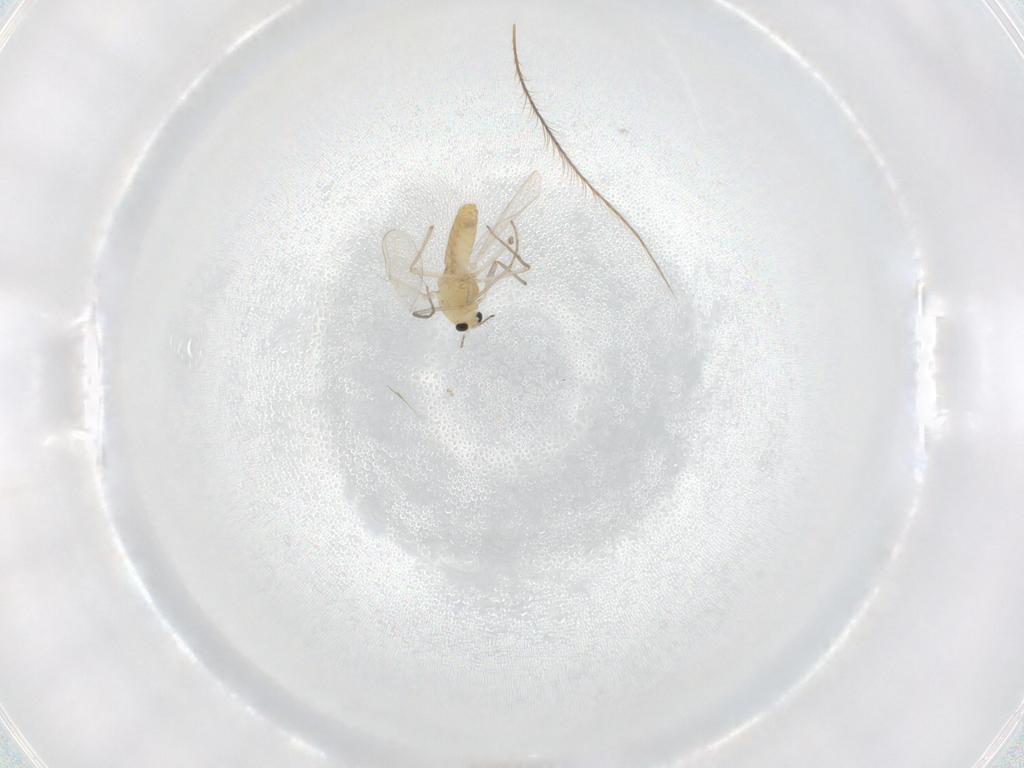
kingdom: Animalia
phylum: Arthropoda
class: Insecta
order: Diptera
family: Chironomidae
